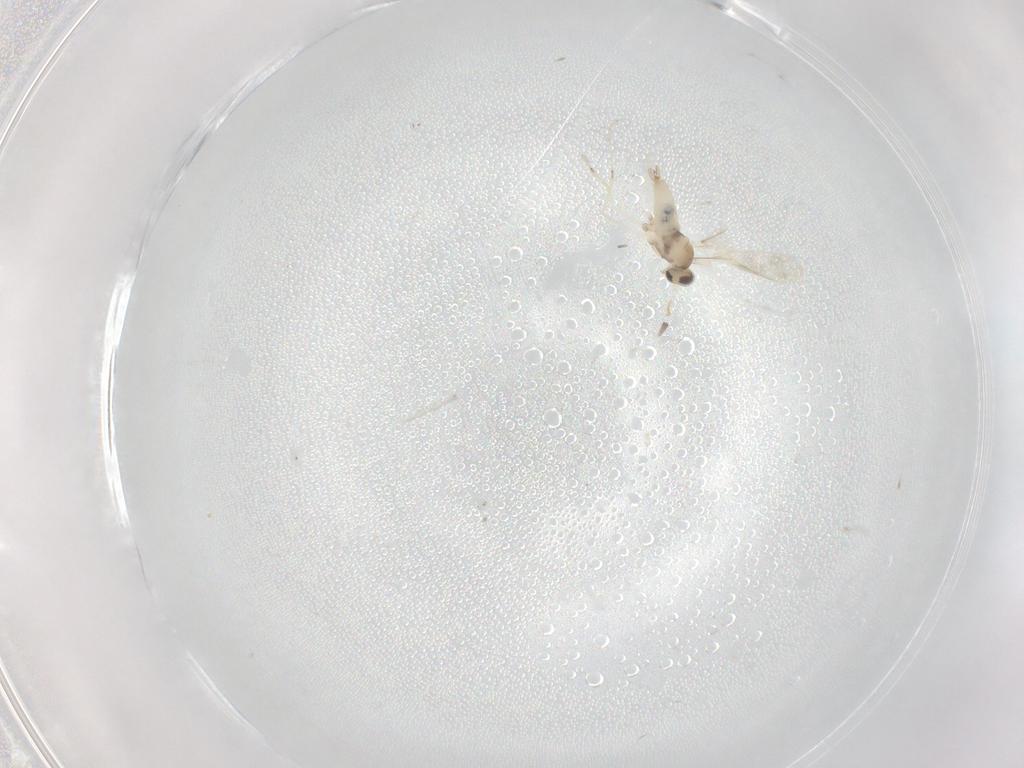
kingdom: Animalia
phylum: Arthropoda
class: Insecta
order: Diptera
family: Cecidomyiidae
